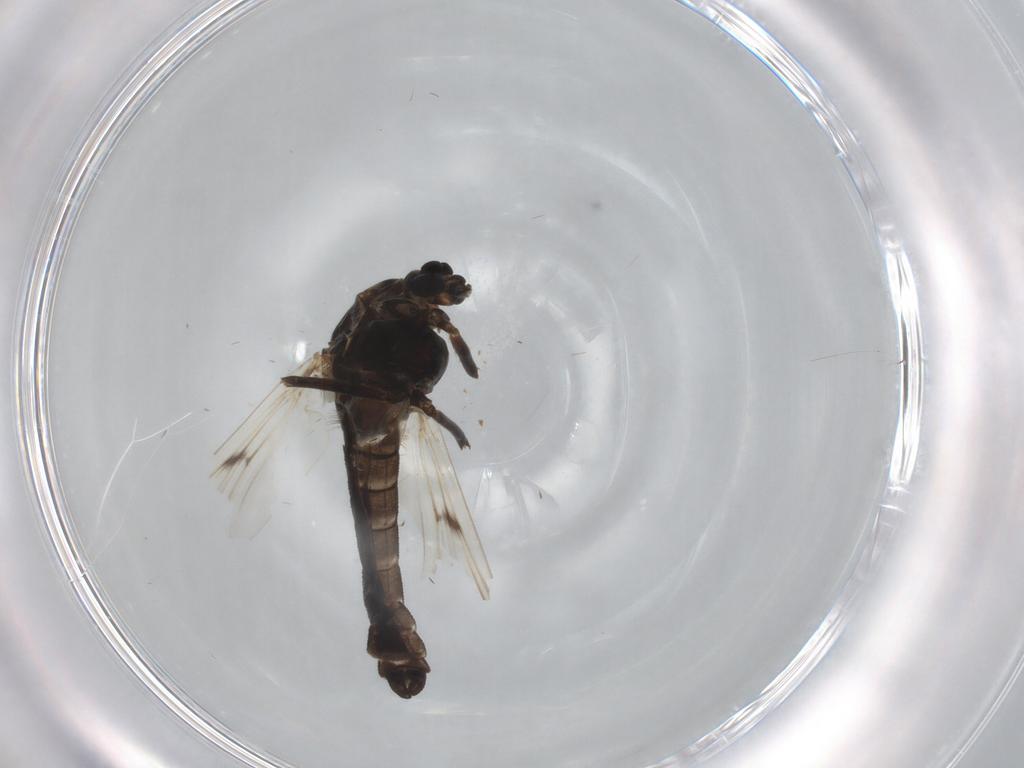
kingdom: Animalia
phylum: Arthropoda
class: Insecta
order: Diptera
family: Chironomidae
